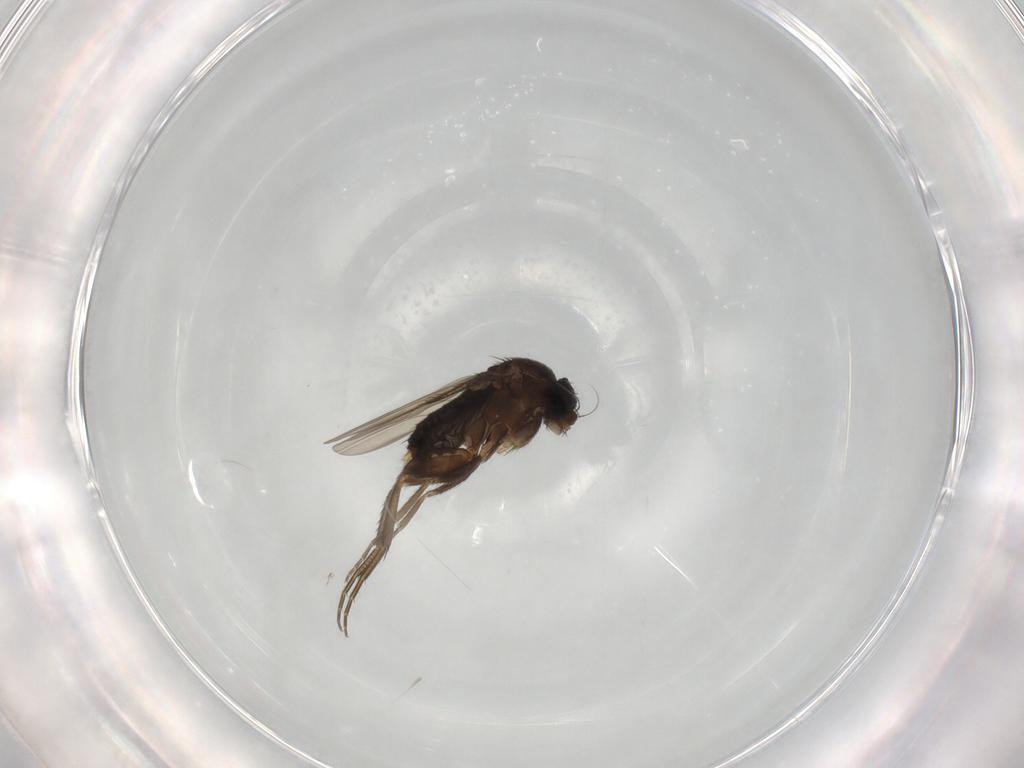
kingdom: Animalia
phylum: Arthropoda
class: Insecta
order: Diptera
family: Phoridae
